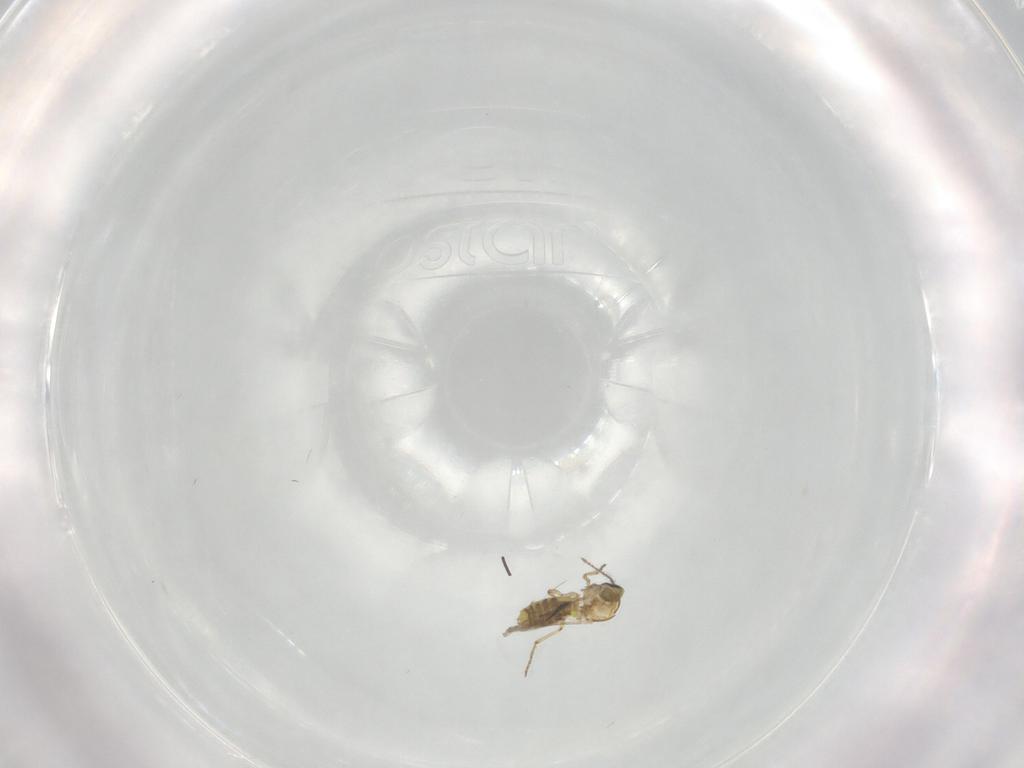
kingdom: Animalia
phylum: Arthropoda
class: Insecta
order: Diptera
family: Ceratopogonidae
